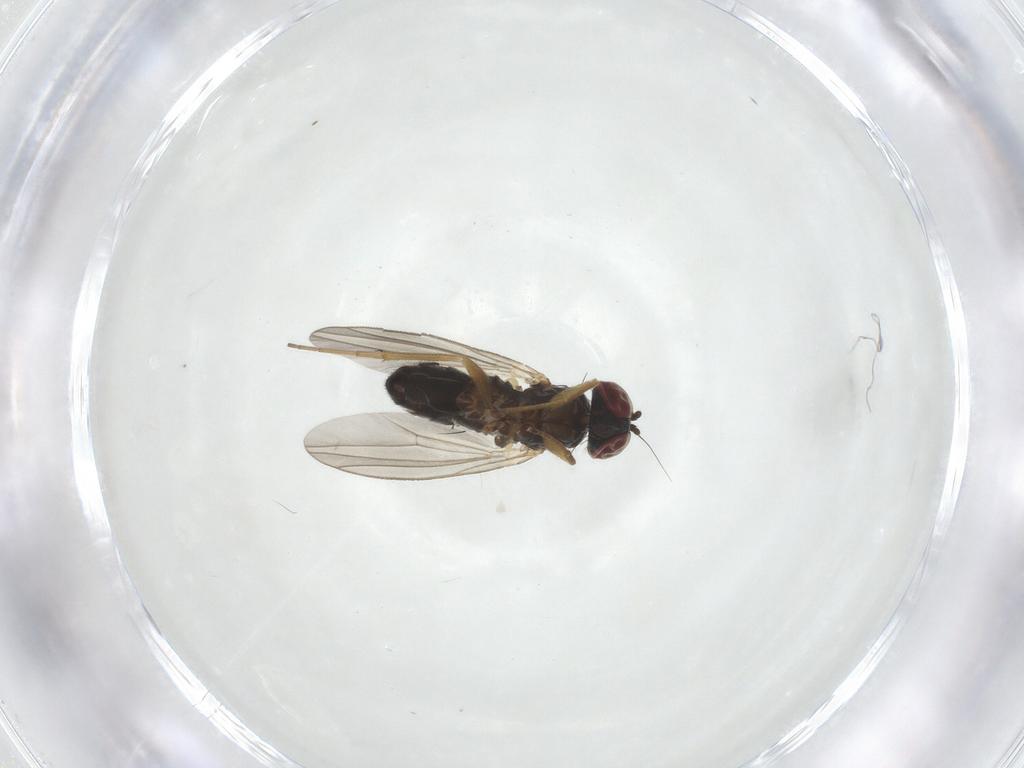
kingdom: Animalia
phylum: Arthropoda
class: Insecta
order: Diptera
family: Dolichopodidae
